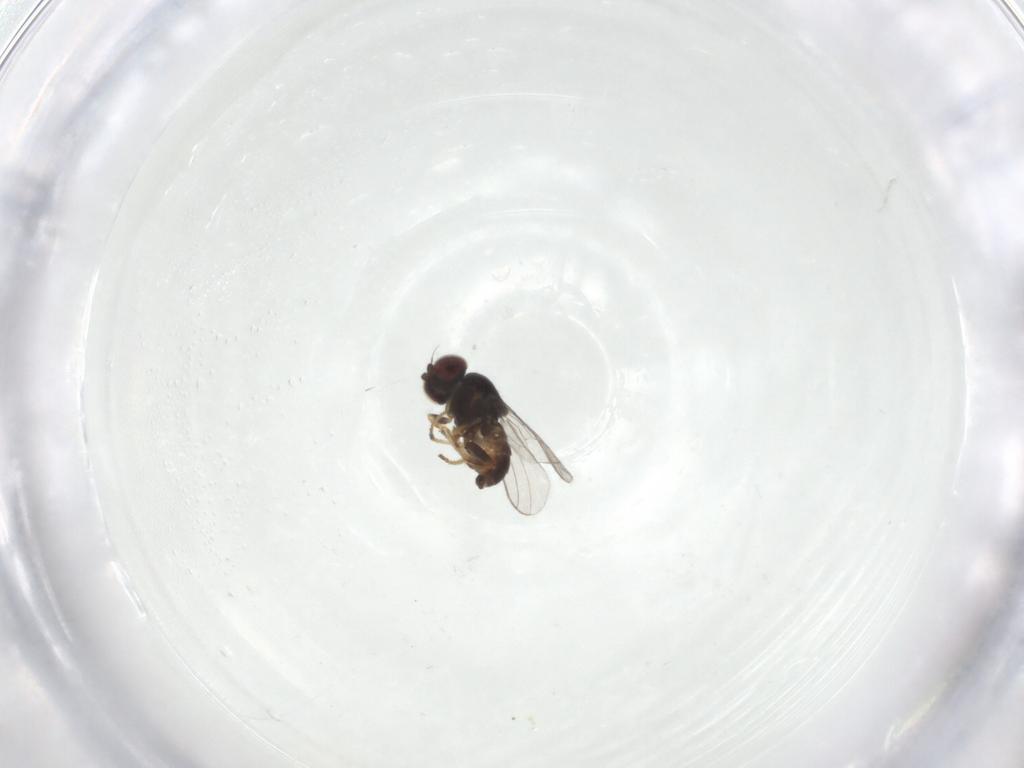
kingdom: Animalia
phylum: Arthropoda
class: Insecta
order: Diptera
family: Chloropidae
